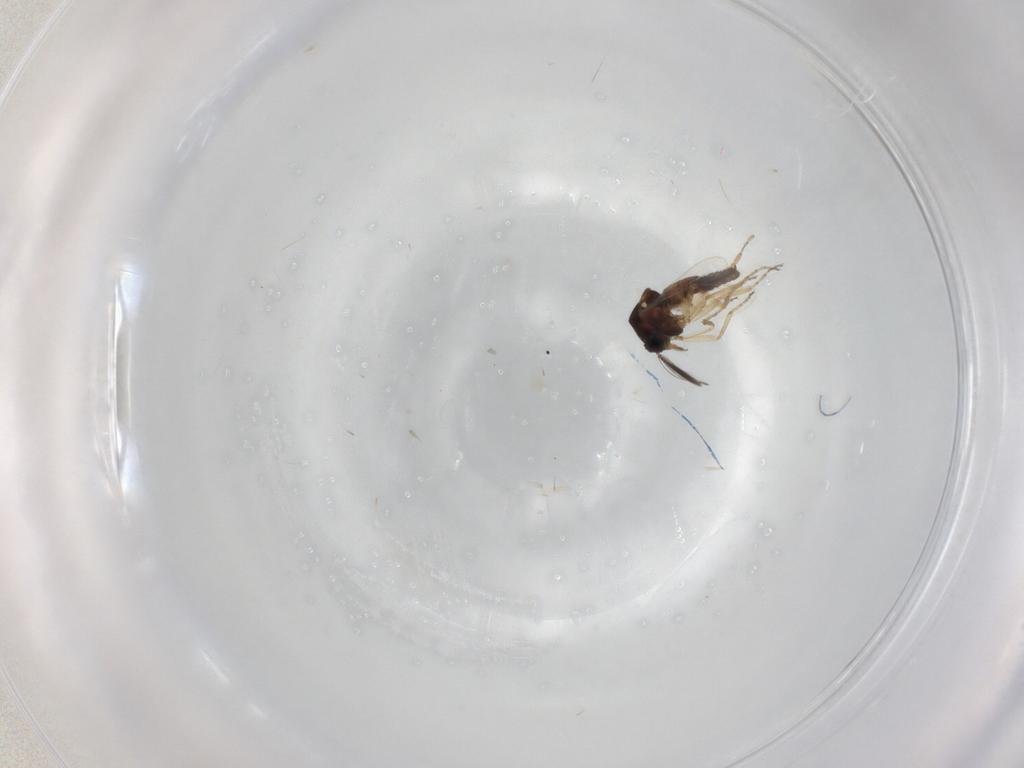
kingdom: Animalia
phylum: Arthropoda
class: Insecta
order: Diptera
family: Ceratopogonidae
